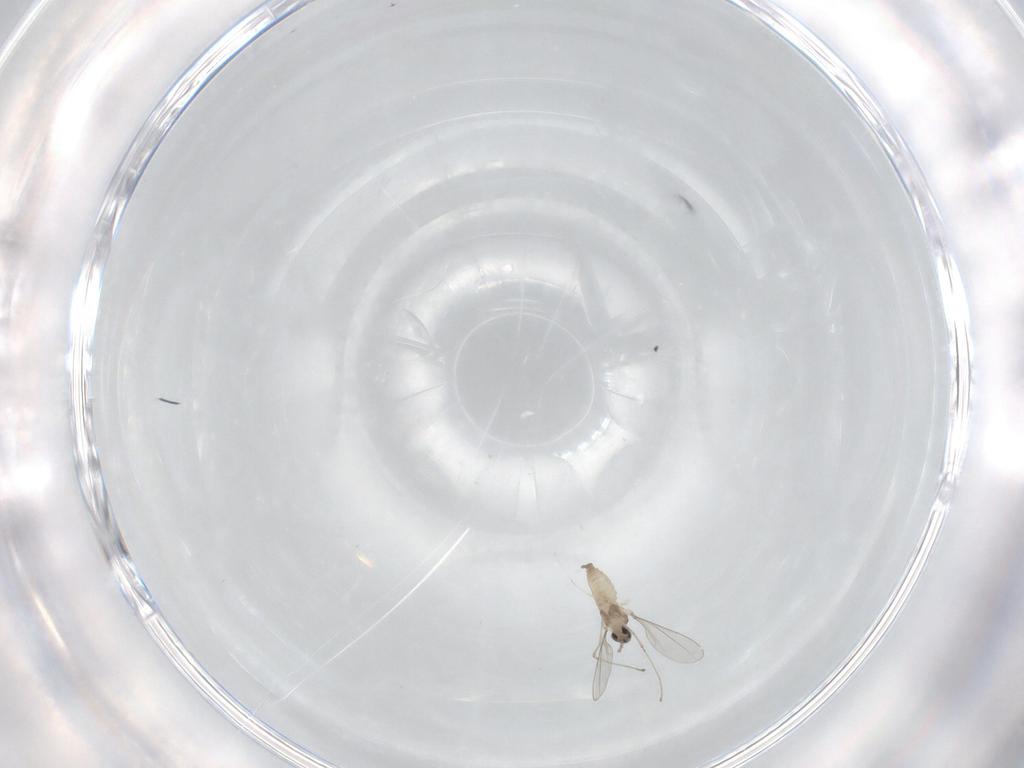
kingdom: Animalia
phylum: Arthropoda
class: Insecta
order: Diptera
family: Cecidomyiidae
